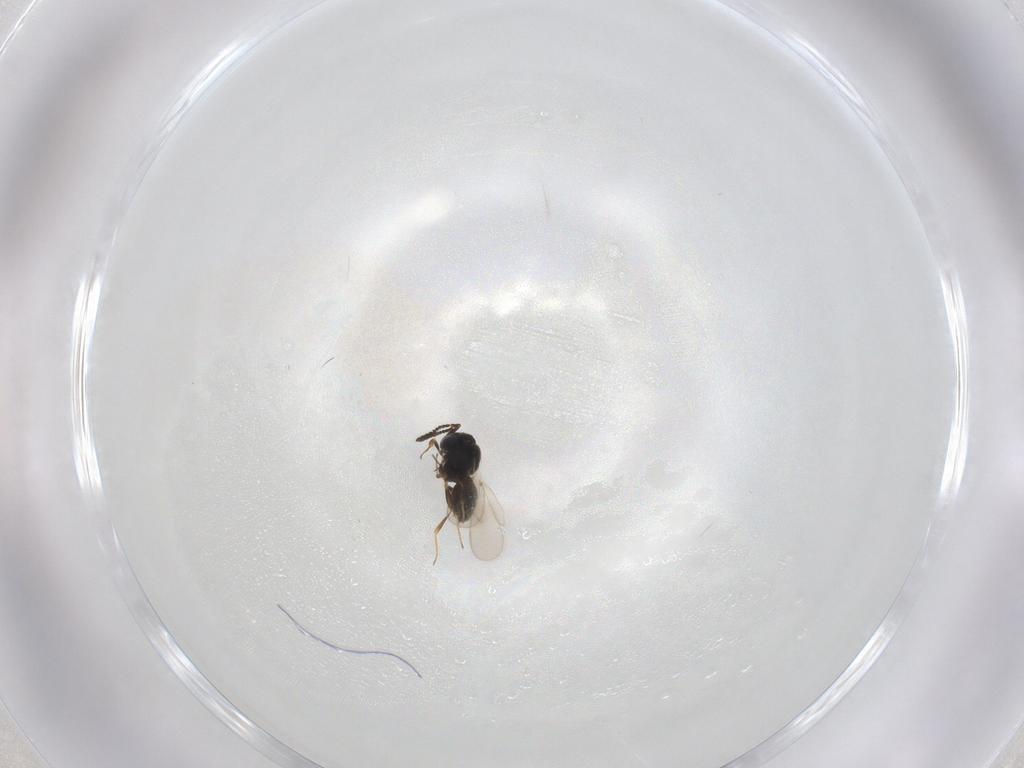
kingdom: Animalia
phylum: Arthropoda
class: Insecta
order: Hymenoptera
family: Scelionidae
